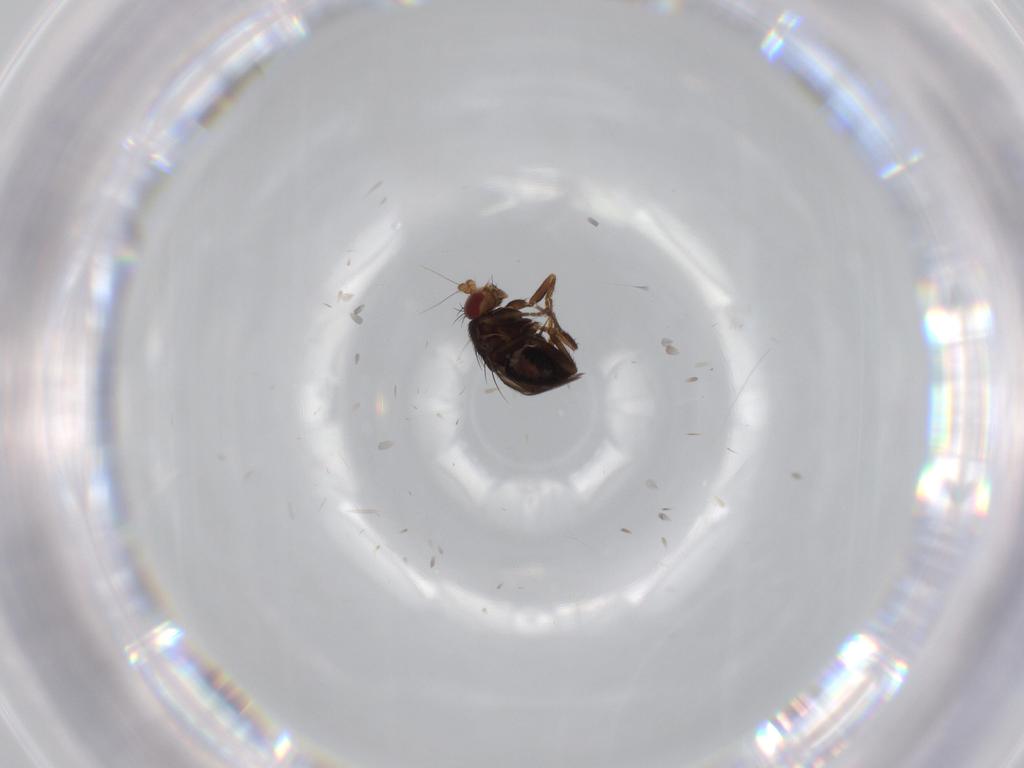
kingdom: Animalia
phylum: Arthropoda
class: Insecta
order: Diptera
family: Sphaeroceridae
